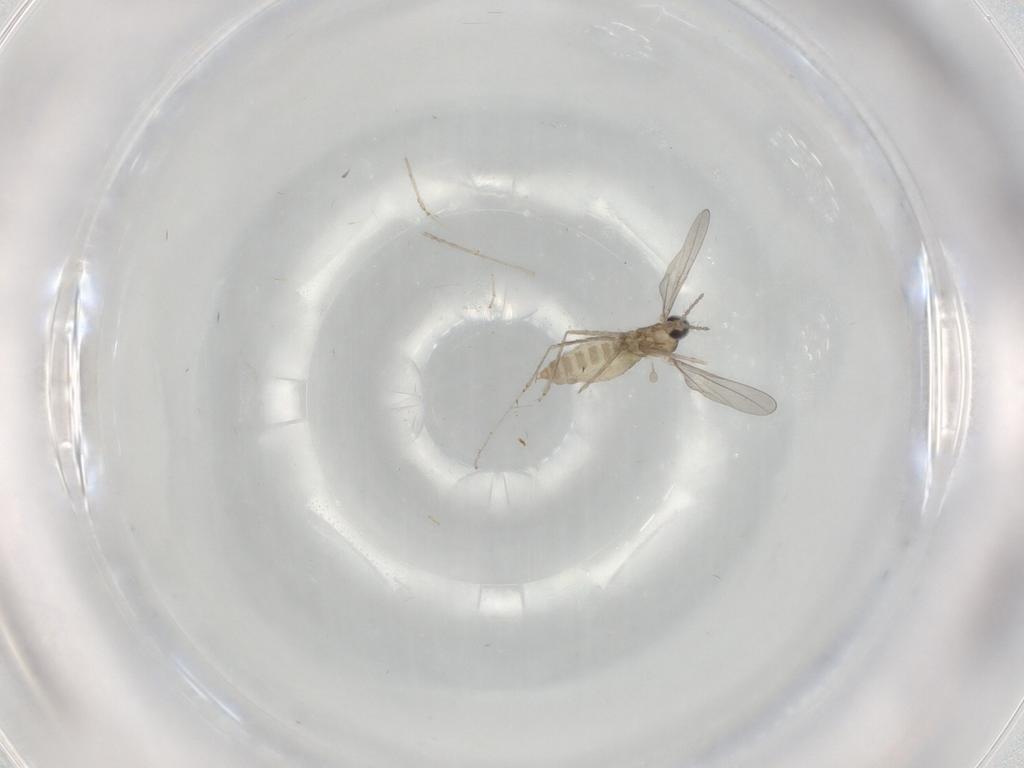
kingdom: Animalia
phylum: Arthropoda
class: Insecta
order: Diptera
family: Cecidomyiidae
